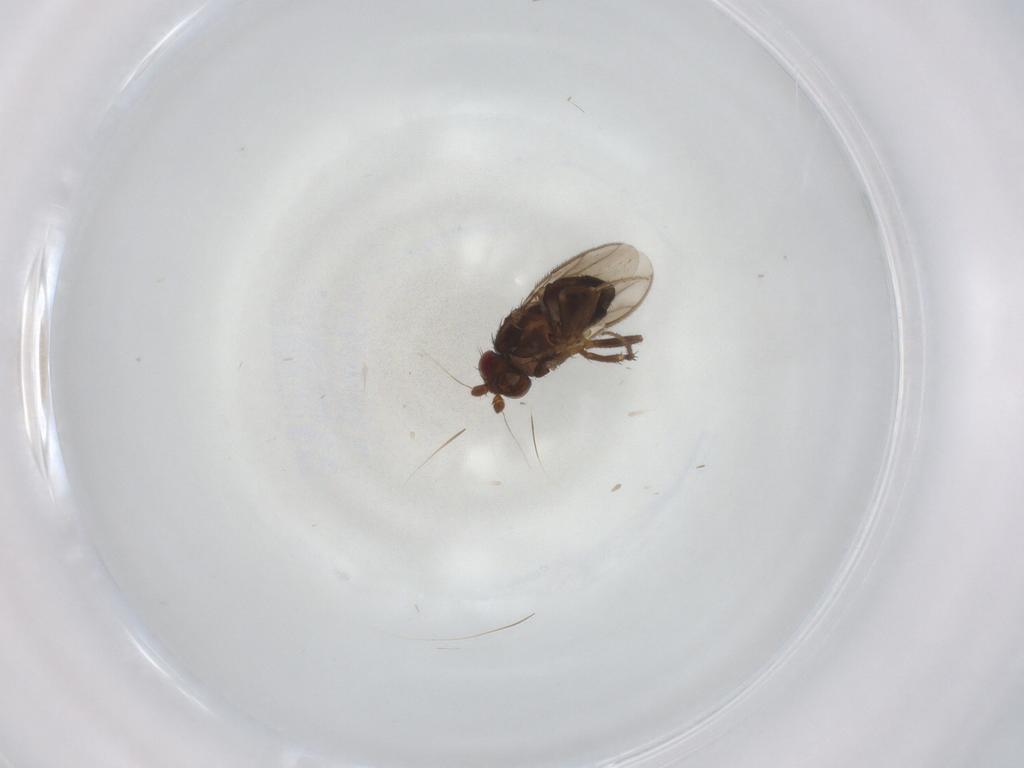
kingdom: Animalia
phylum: Arthropoda
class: Insecta
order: Diptera
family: Sphaeroceridae
